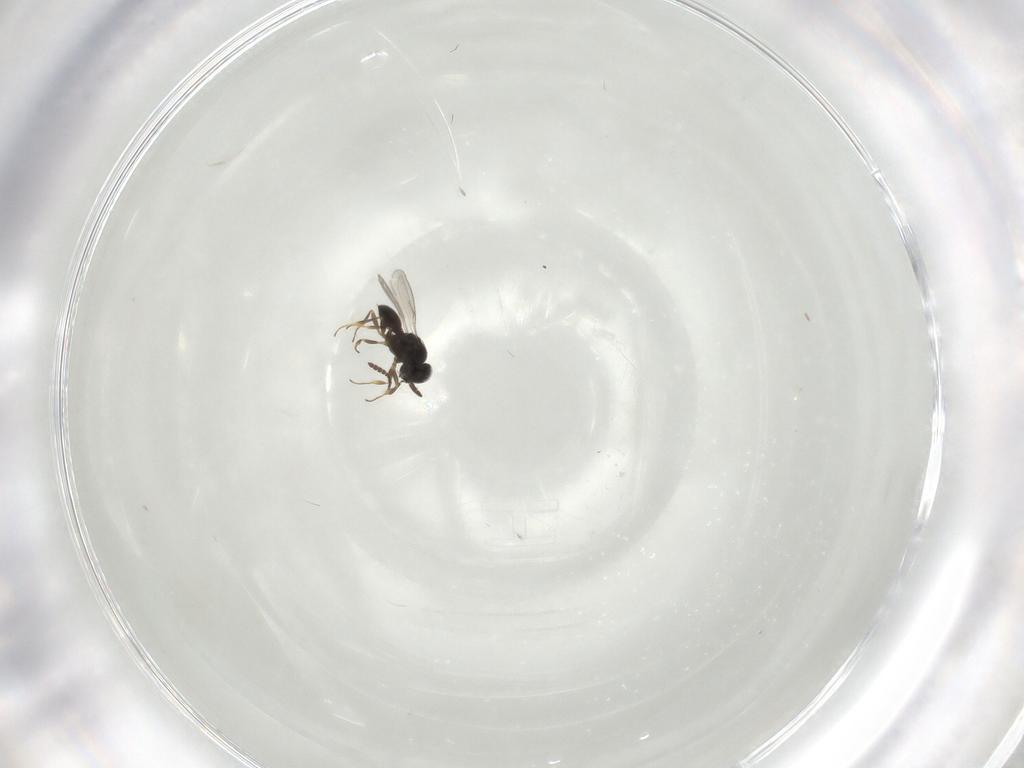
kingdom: Animalia
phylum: Arthropoda
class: Insecta
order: Hymenoptera
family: Scelionidae
